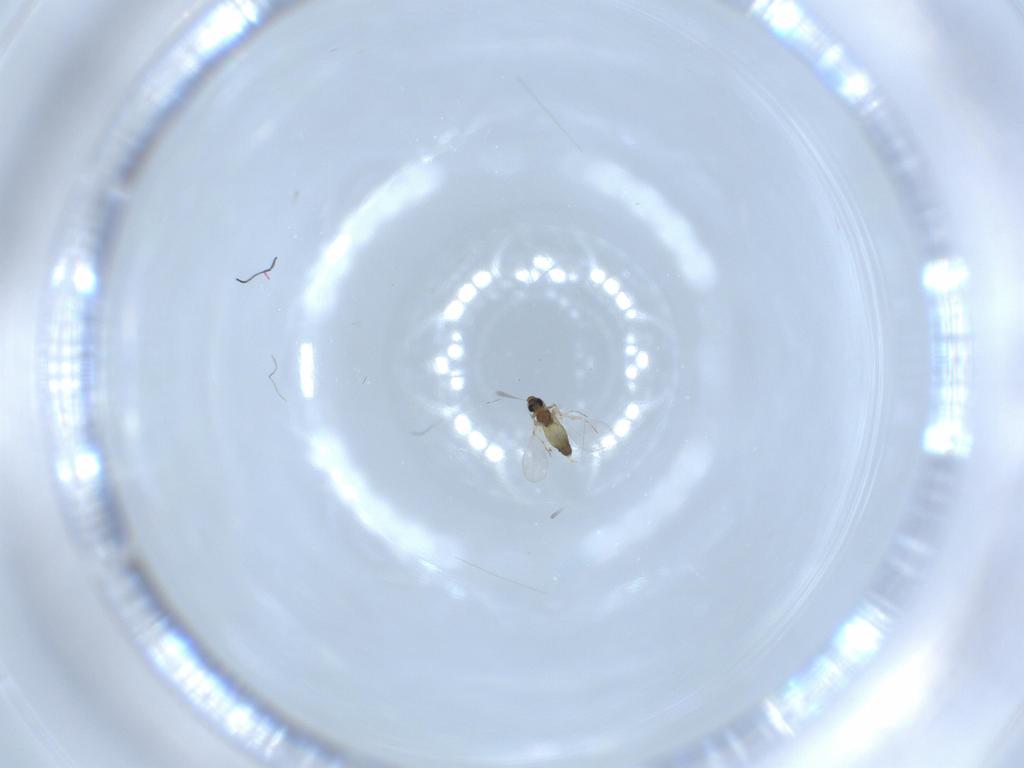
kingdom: Animalia
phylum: Arthropoda
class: Insecta
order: Diptera
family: Chironomidae
